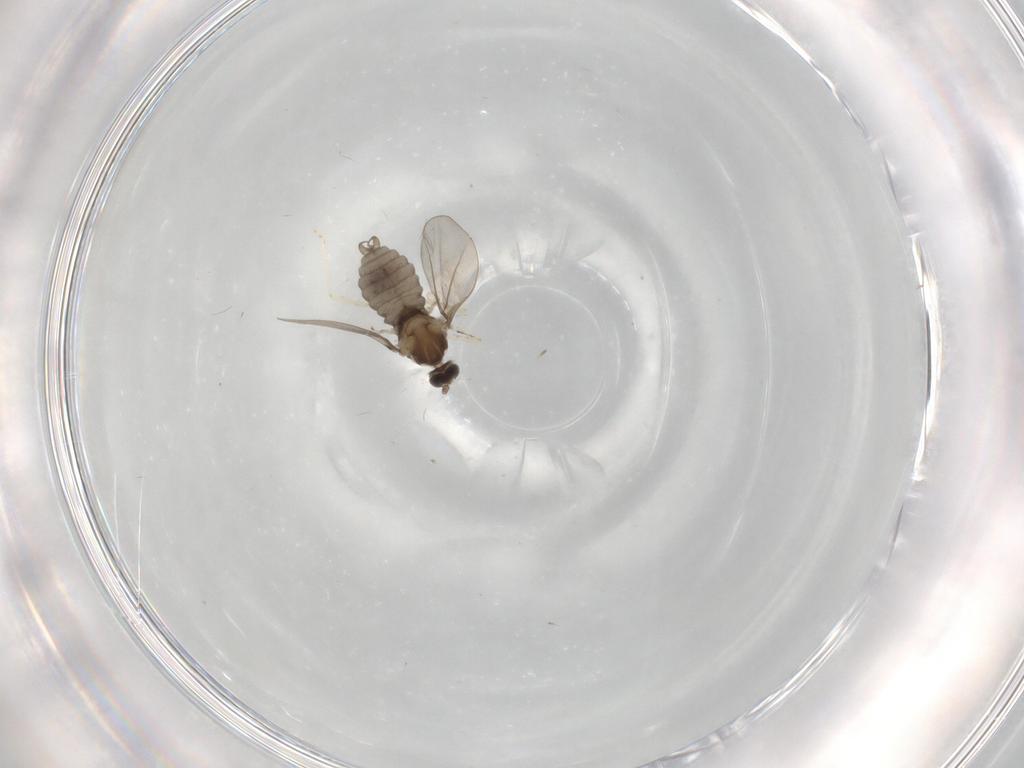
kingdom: Animalia
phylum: Arthropoda
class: Insecta
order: Diptera
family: Cecidomyiidae
